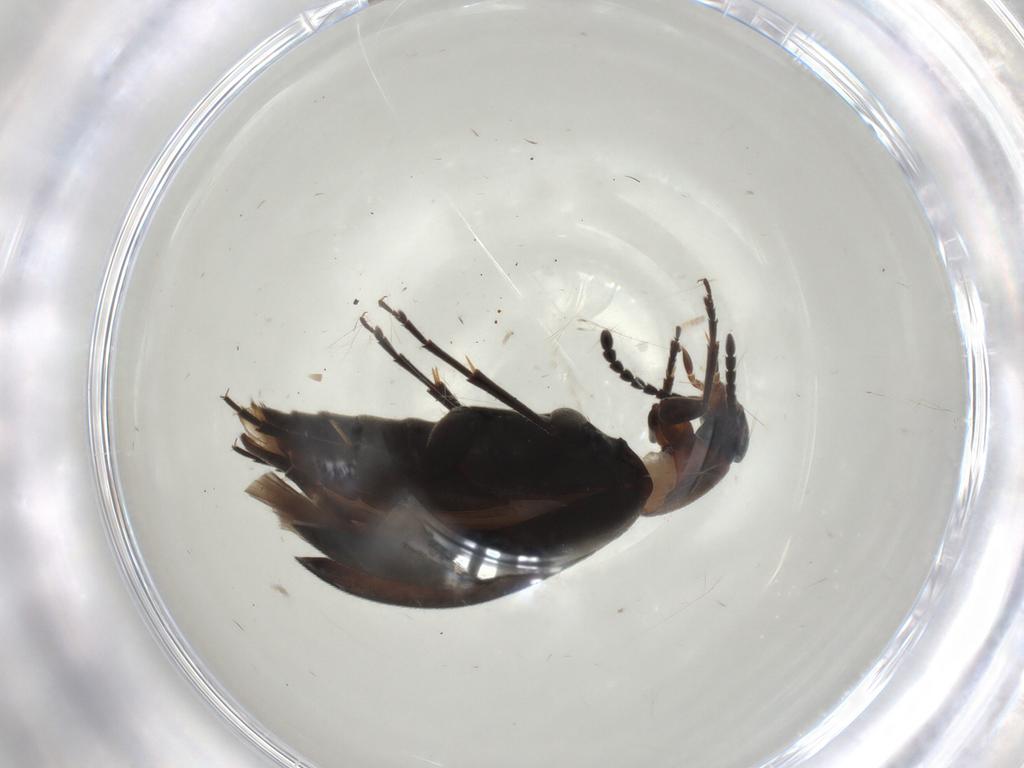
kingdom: Animalia
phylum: Arthropoda
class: Insecta
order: Coleoptera
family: Scraptiidae
